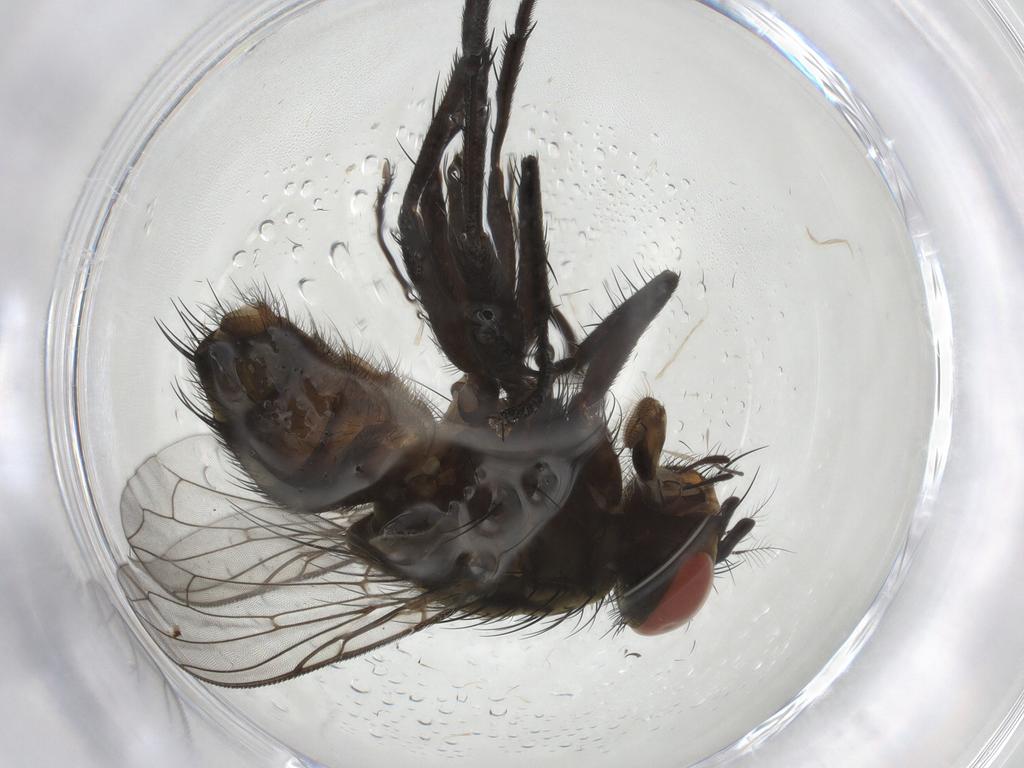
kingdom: Animalia
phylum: Arthropoda
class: Insecta
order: Diptera
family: Sarcophagidae
